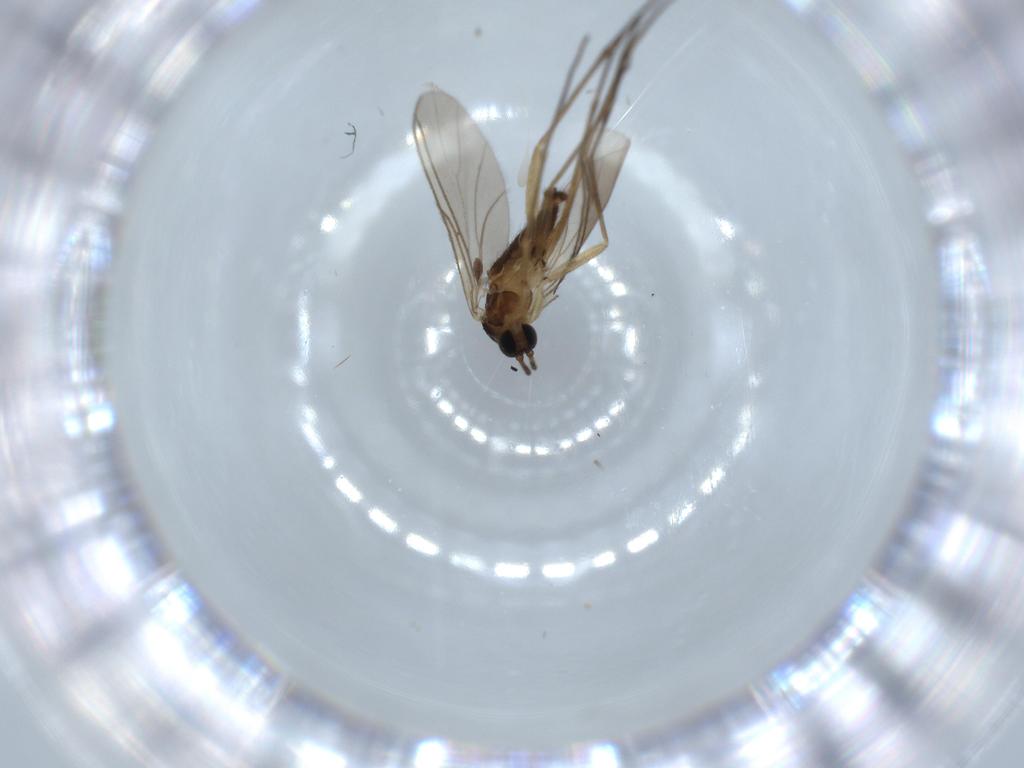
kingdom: Animalia
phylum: Arthropoda
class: Insecta
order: Diptera
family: Sciaridae
